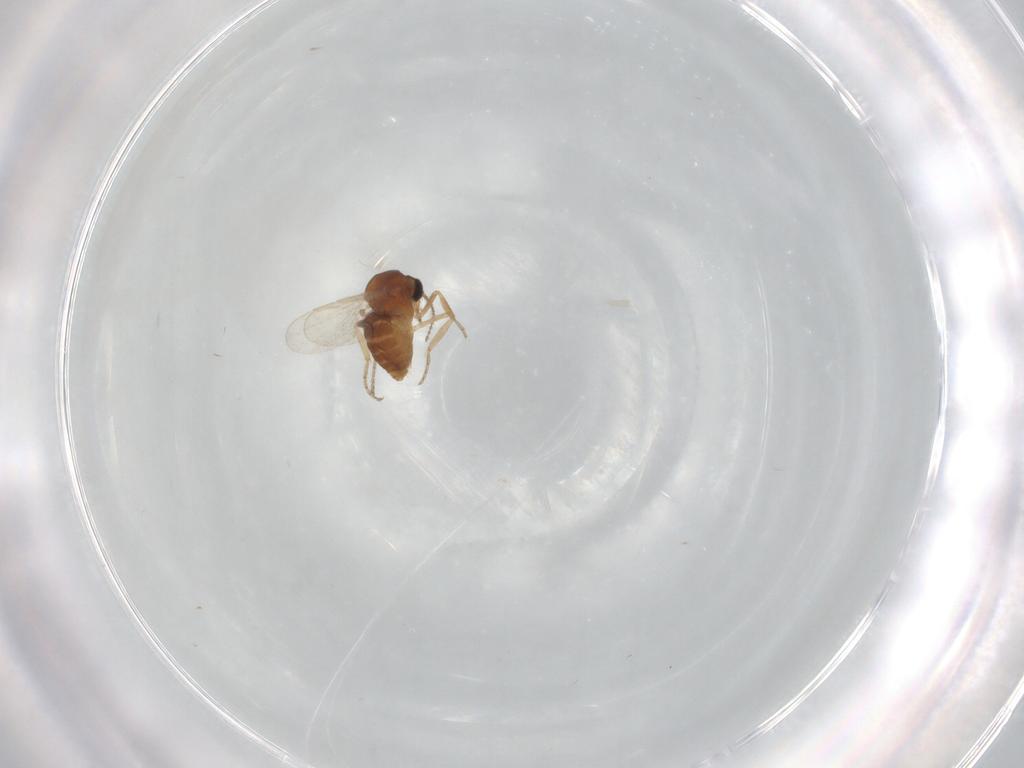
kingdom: Animalia
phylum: Arthropoda
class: Insecta
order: Diptera
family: Ceratopogonidae
